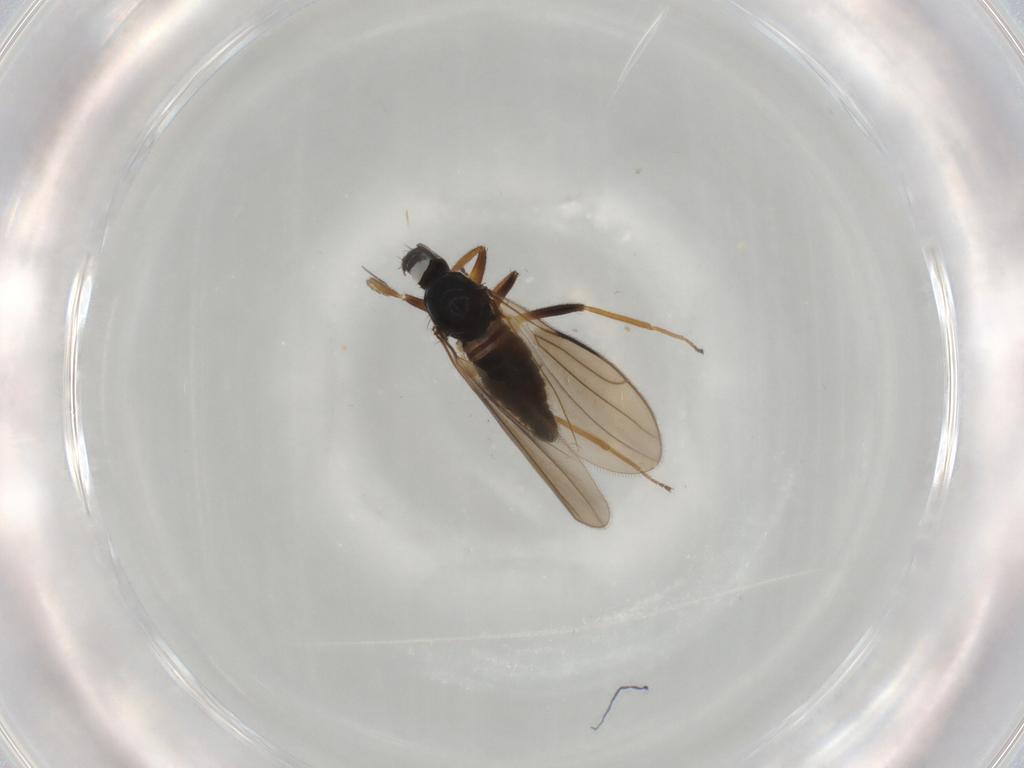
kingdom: Animalia
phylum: Arthropoda
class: Insecta
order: Diptera
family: Hybotidae
